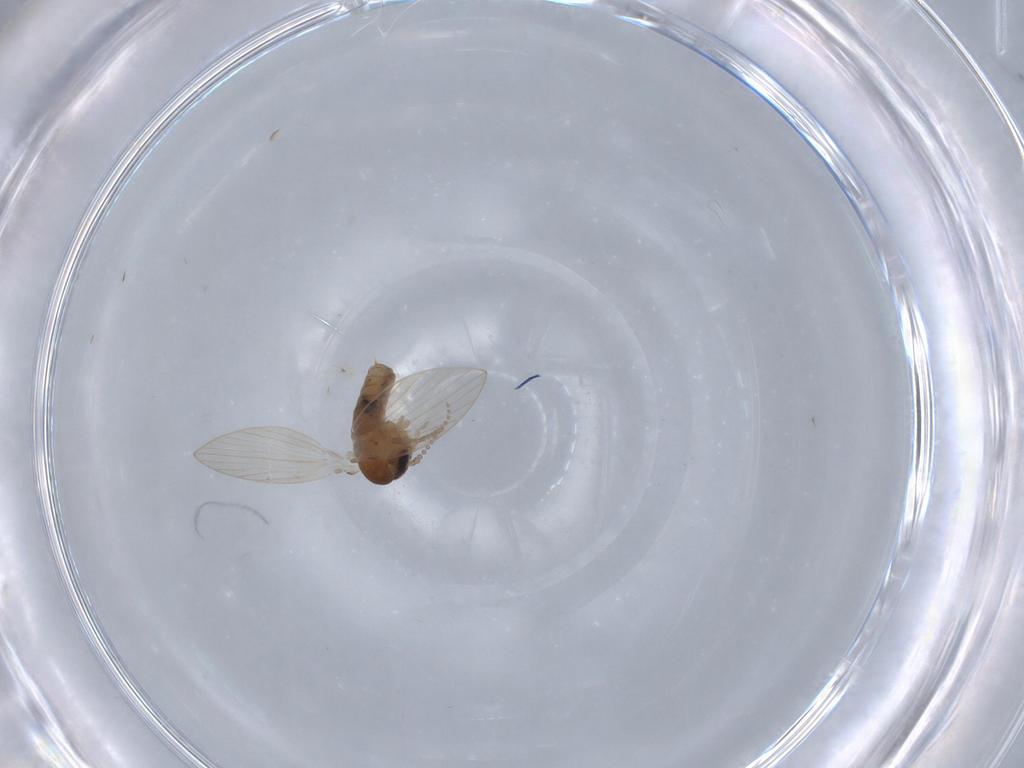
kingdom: Animalia
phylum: Arthropoda
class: Insecta
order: Diptera
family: Psychodidae
